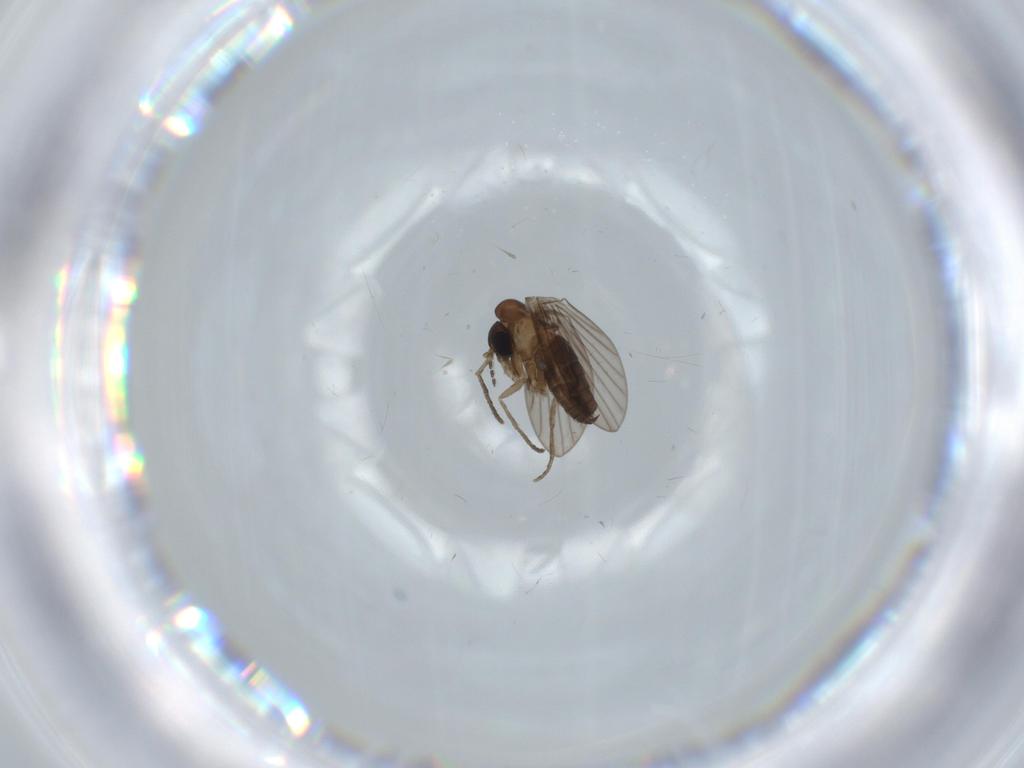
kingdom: Animalia
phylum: Arthropoda
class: Insecta
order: Diptera
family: Psychodidae
